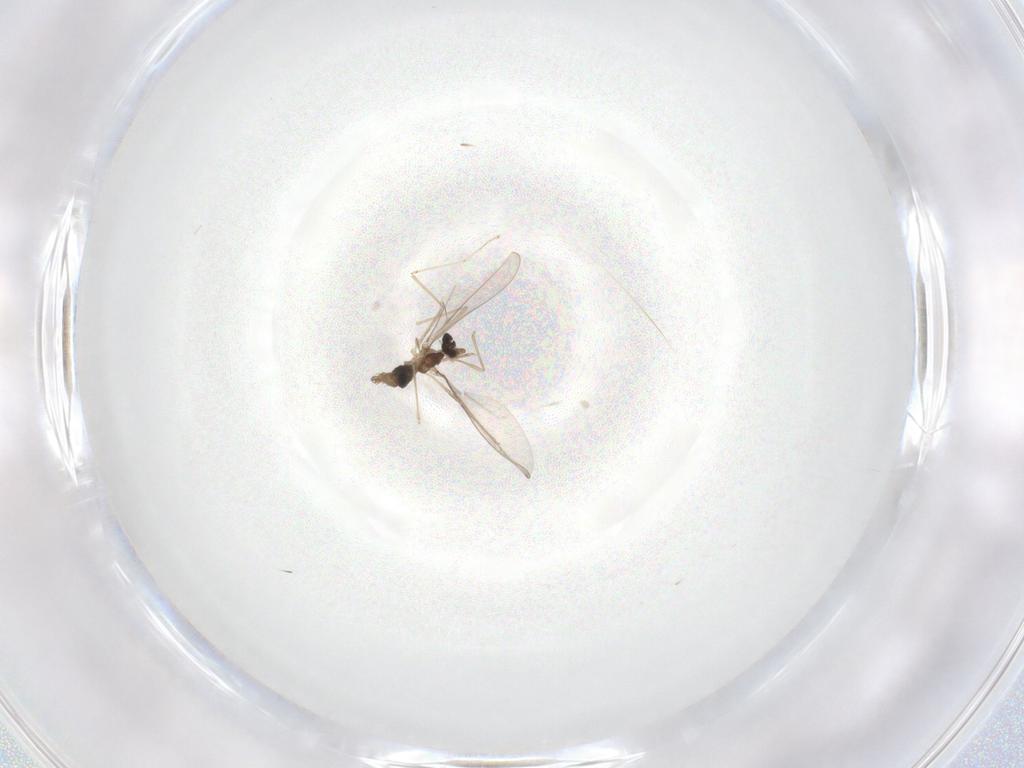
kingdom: Animalia
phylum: Arthropoda
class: Insecta
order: Diptera
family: Cecidomyiidae
